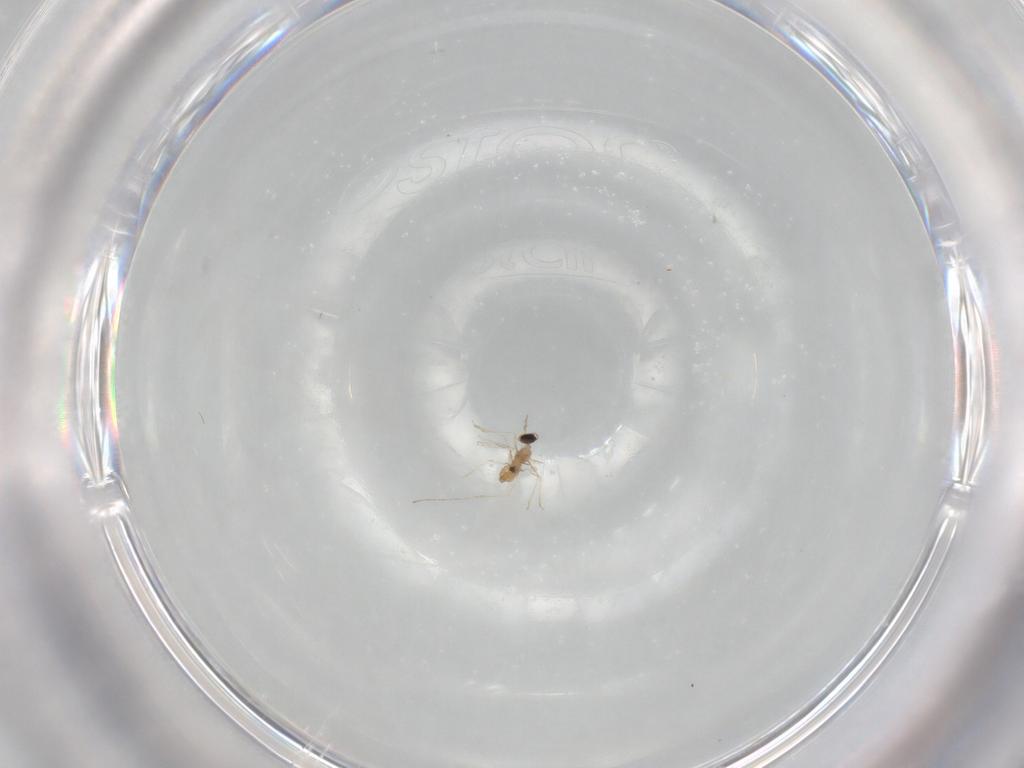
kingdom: Animalia
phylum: Arthropoda
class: Insecta
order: Diptera
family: Cecidomyiidae
